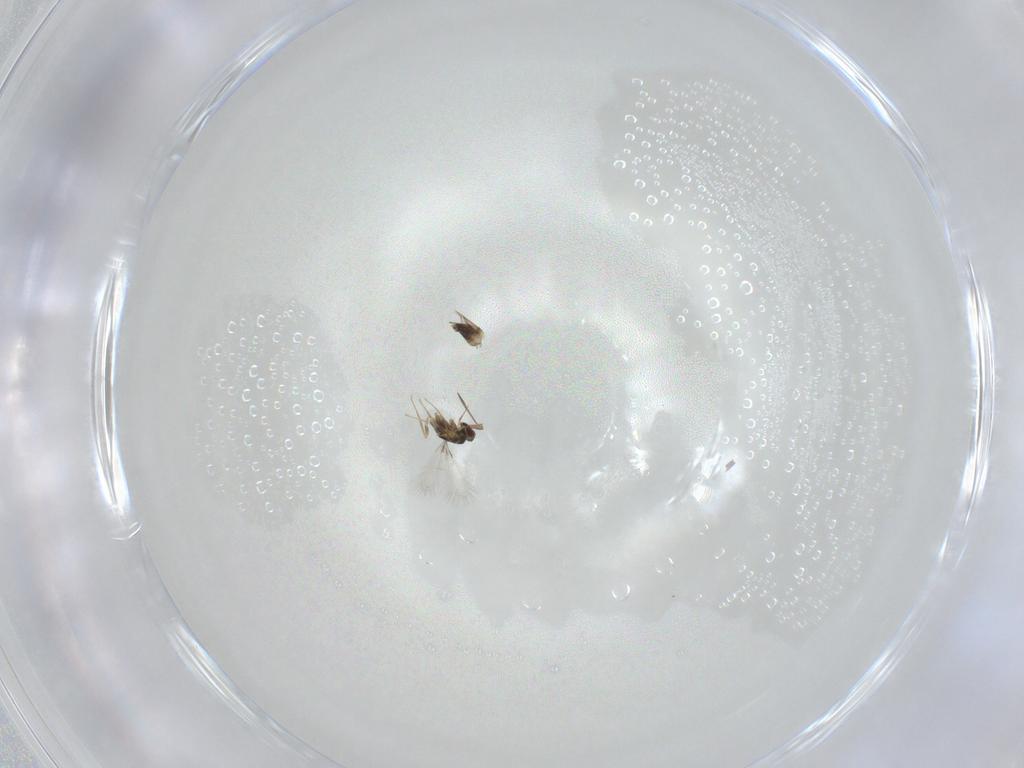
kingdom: Animalia
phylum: Arthropoda
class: Insecta
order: Hymenoptera
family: Mymaridae
